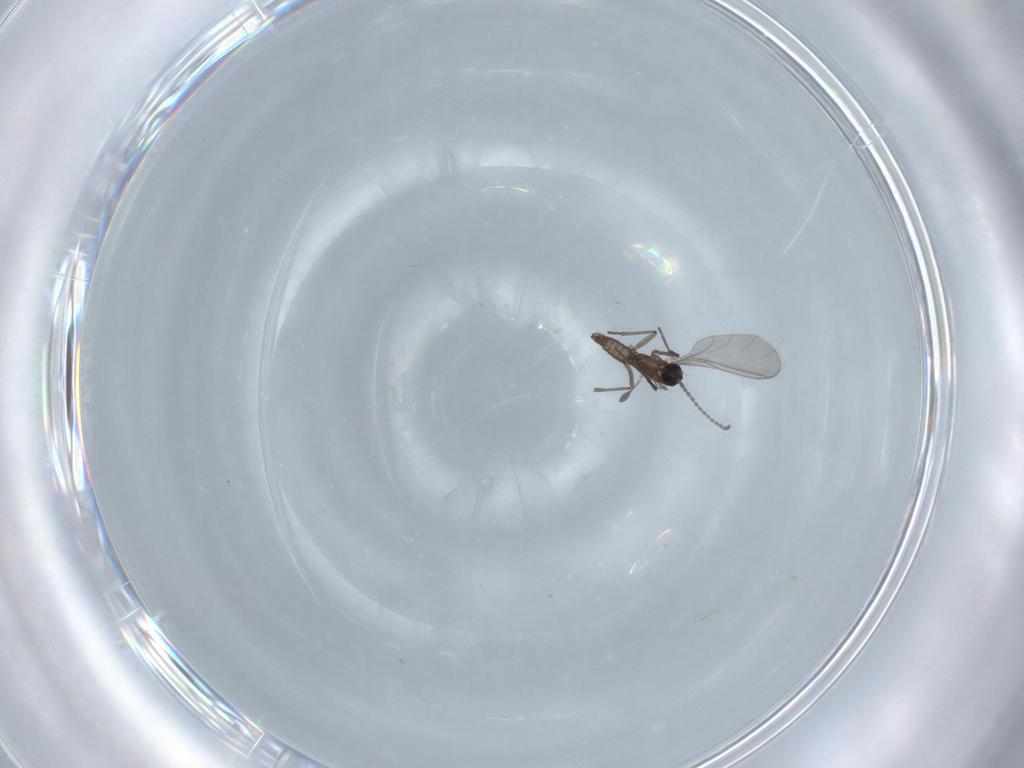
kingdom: Animalia
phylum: Arthropoda
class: Insecta
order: Diptera
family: Sciaridae
